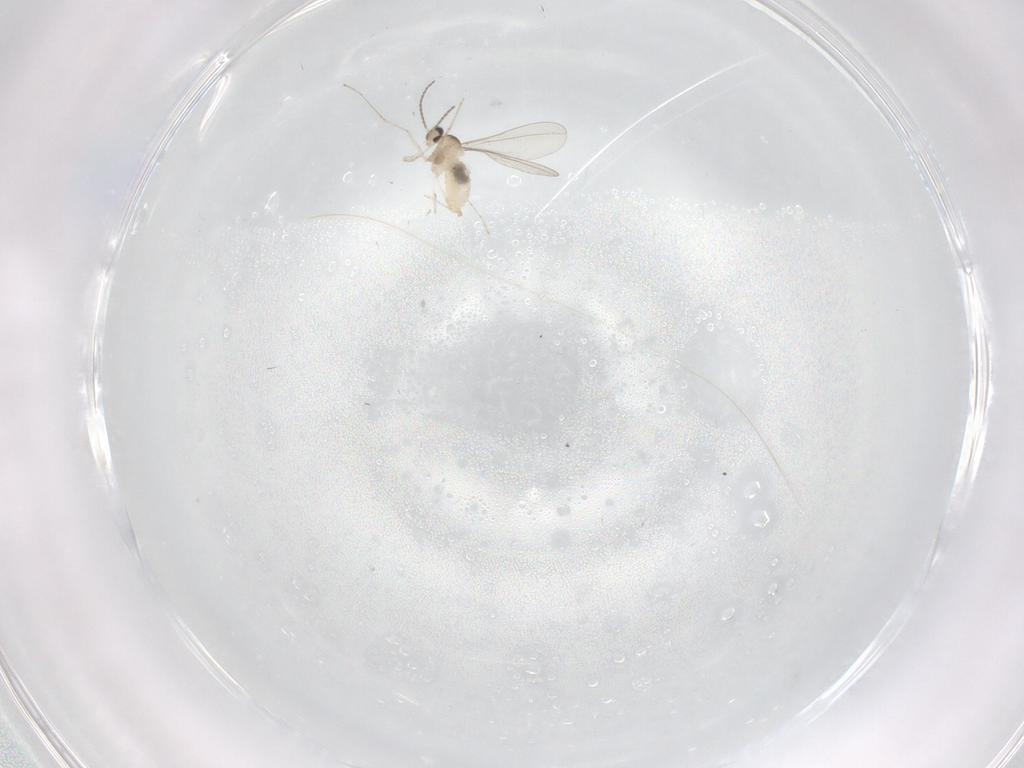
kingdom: Animalia
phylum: Arthropoda
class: Insecta
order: Diptera
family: Cecidomyiidae
